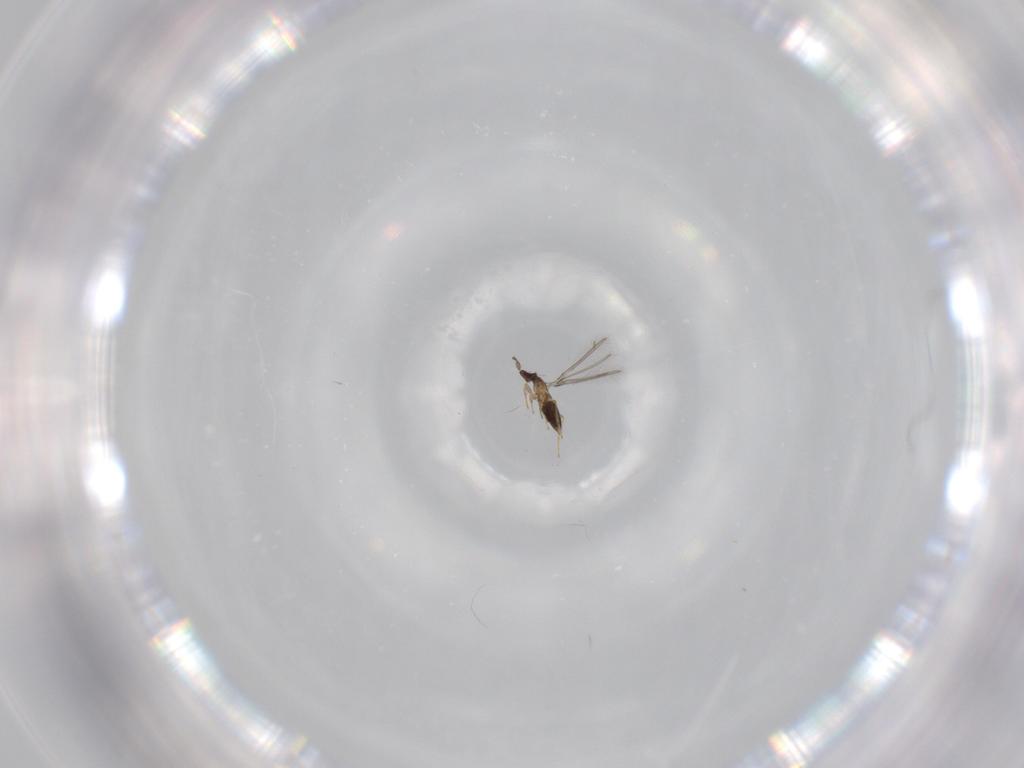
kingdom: Animalia
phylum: Arthropoda
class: Insecta
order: Hymenoptera
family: Mymaridae
